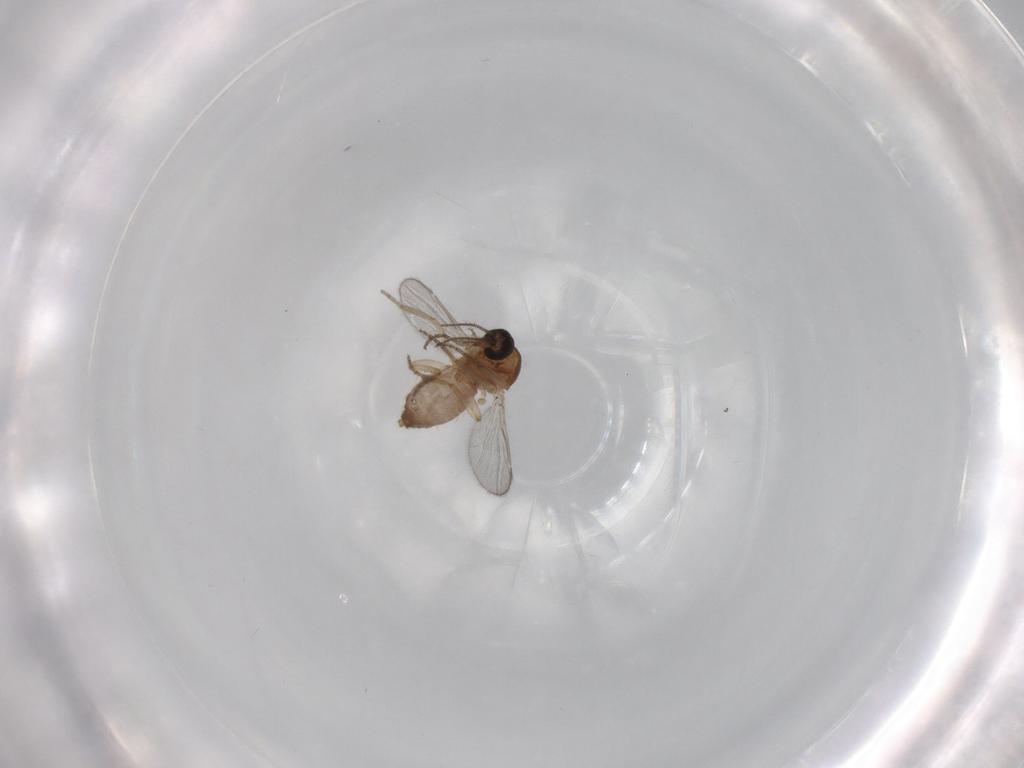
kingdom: Animalia
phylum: Arthropoda
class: Insecta
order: Diptera
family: Ceratopogonidae
